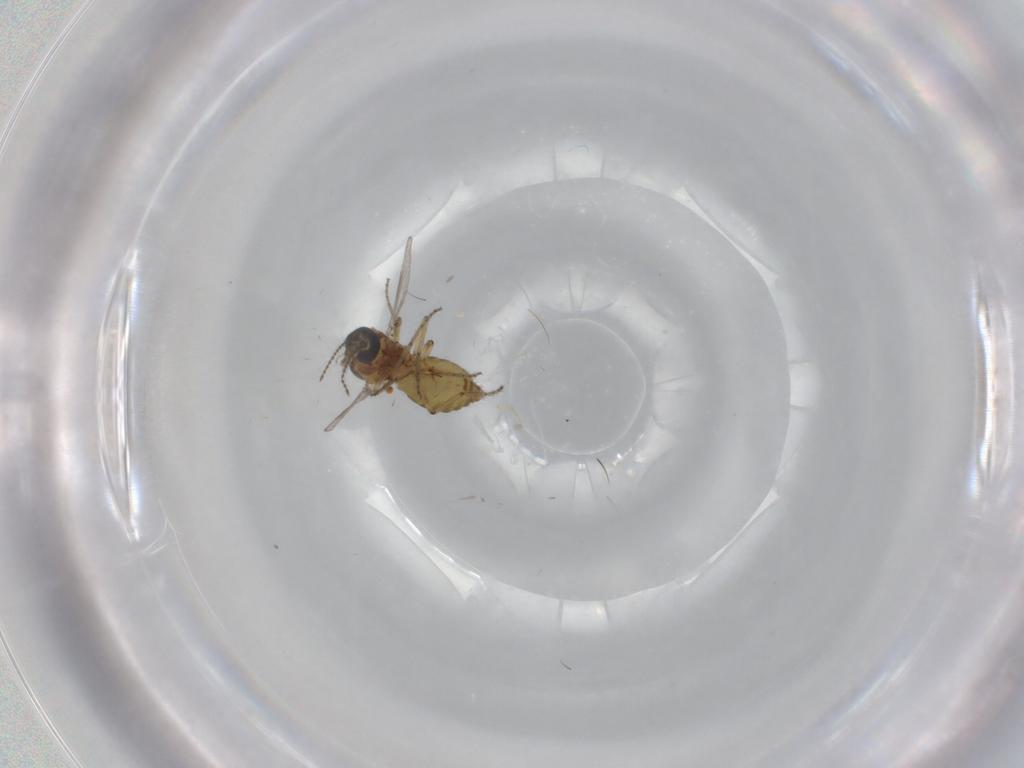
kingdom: Animalia
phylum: Arthropoda
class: Insecta
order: Diptera
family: Ceratopogonidae
